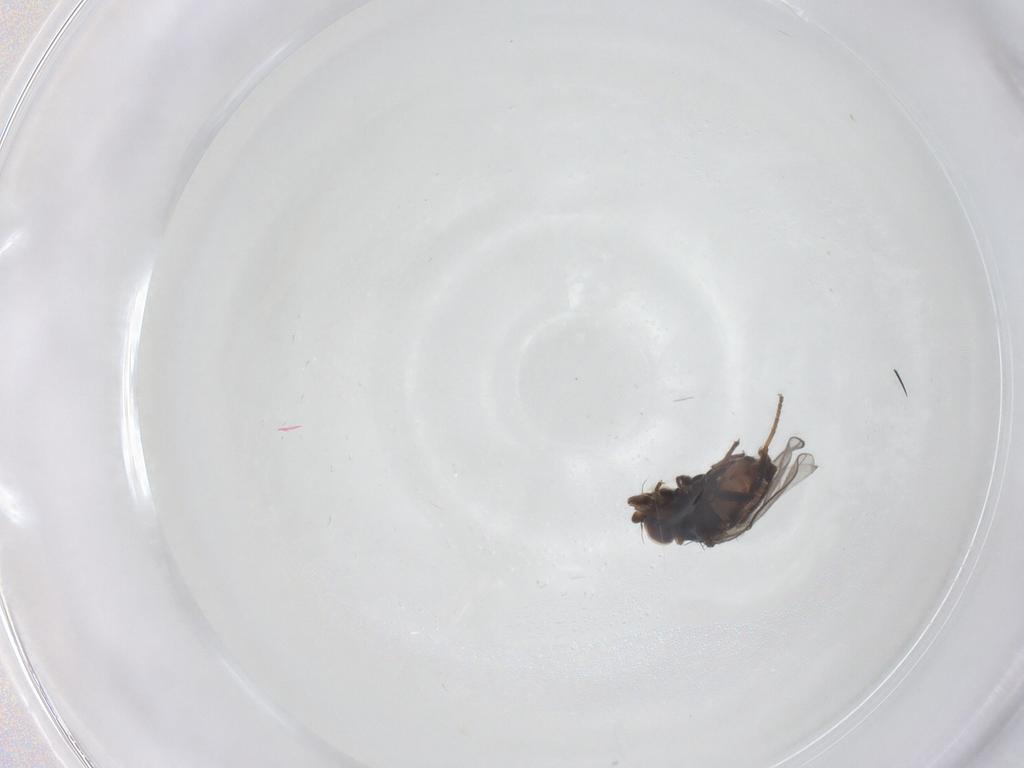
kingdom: Animalia
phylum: Arthropoda
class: Insecta
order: Diptera
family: Chloropidae
